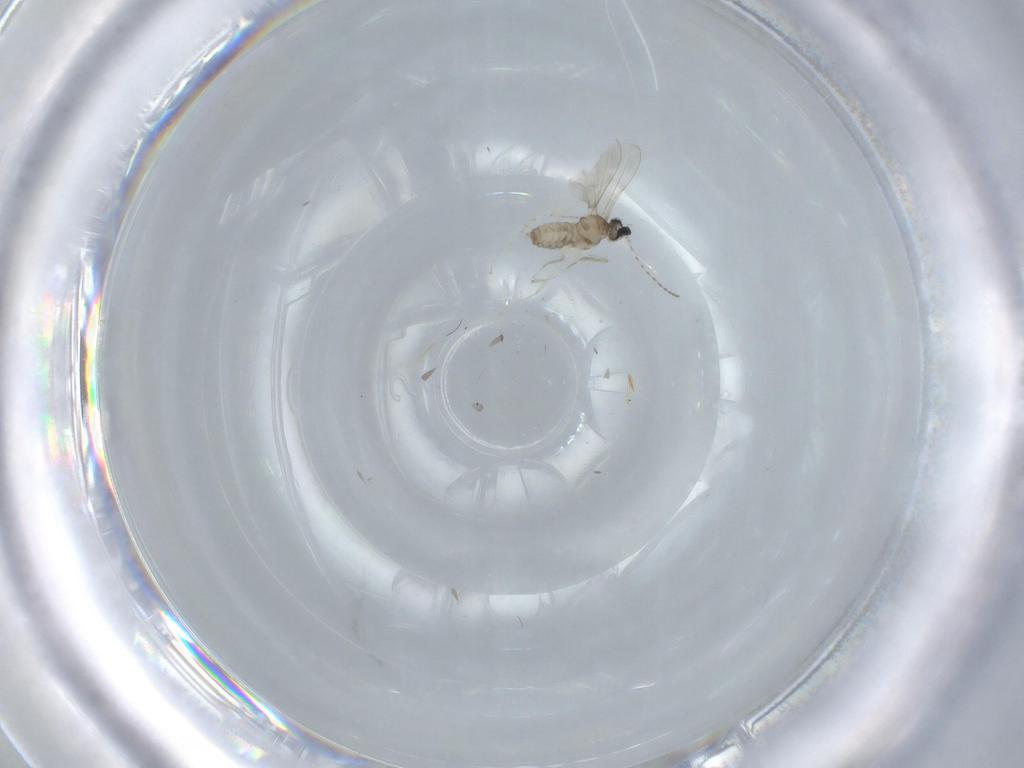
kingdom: Animalia
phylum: Arthropoda
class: Insecta
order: Diptera
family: Cecidomyiidae
